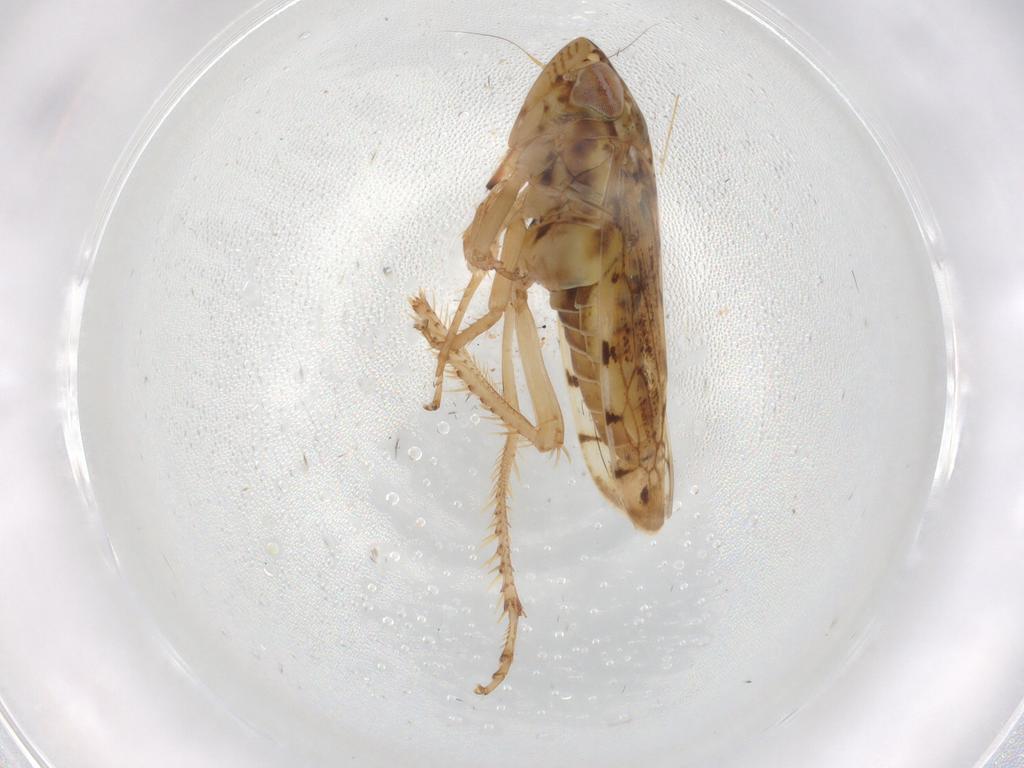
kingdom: Animalia
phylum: Arthropoda
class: Insecta
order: Hemiptera
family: Cicadellidae
